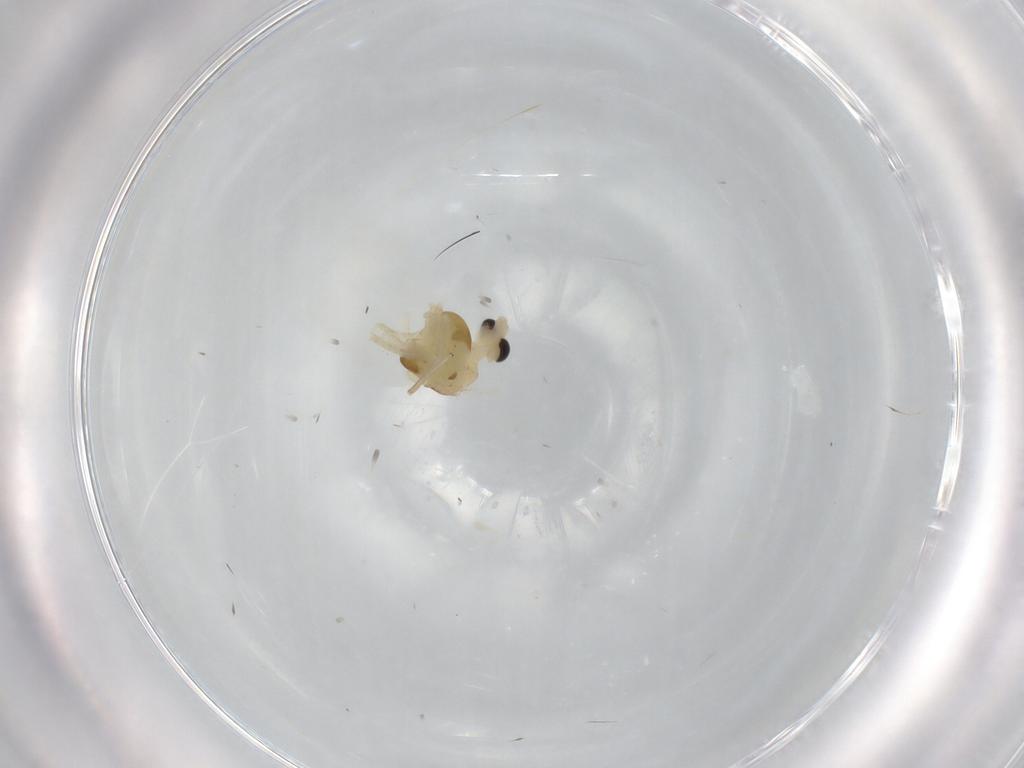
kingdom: Animalia
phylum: Arthropoda
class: Insecta
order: Diptera
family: Chironomidae
